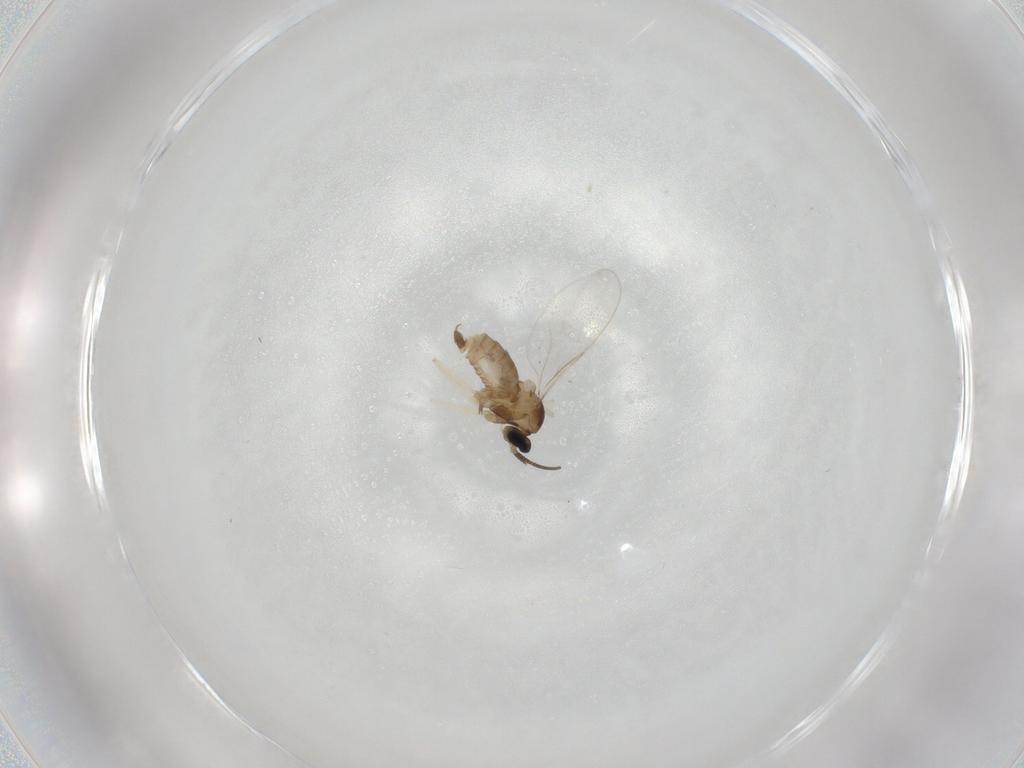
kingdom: Animalia
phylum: Arthropoda
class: Insecta
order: Diptera
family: Cecidomyiidae
